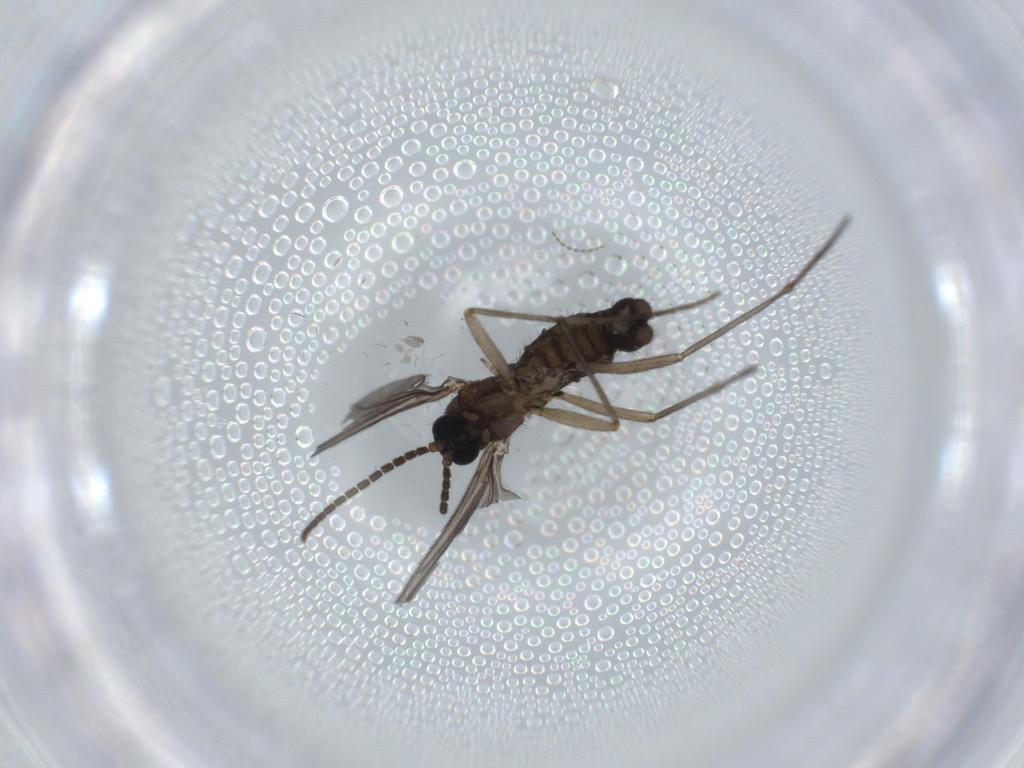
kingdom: Animalia
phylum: Arthropoda
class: Insecta
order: Diptera
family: Sciaridae
